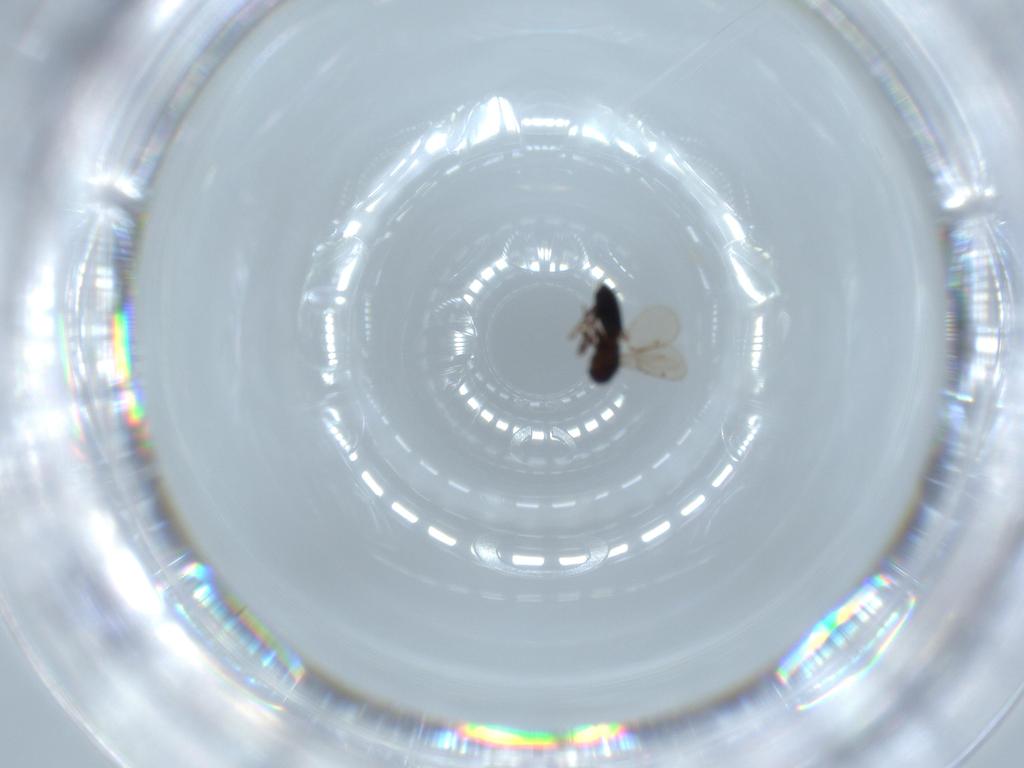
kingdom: Animalia
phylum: Arthropoda
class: Insecta
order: Hymenoptera
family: Pirenidae
